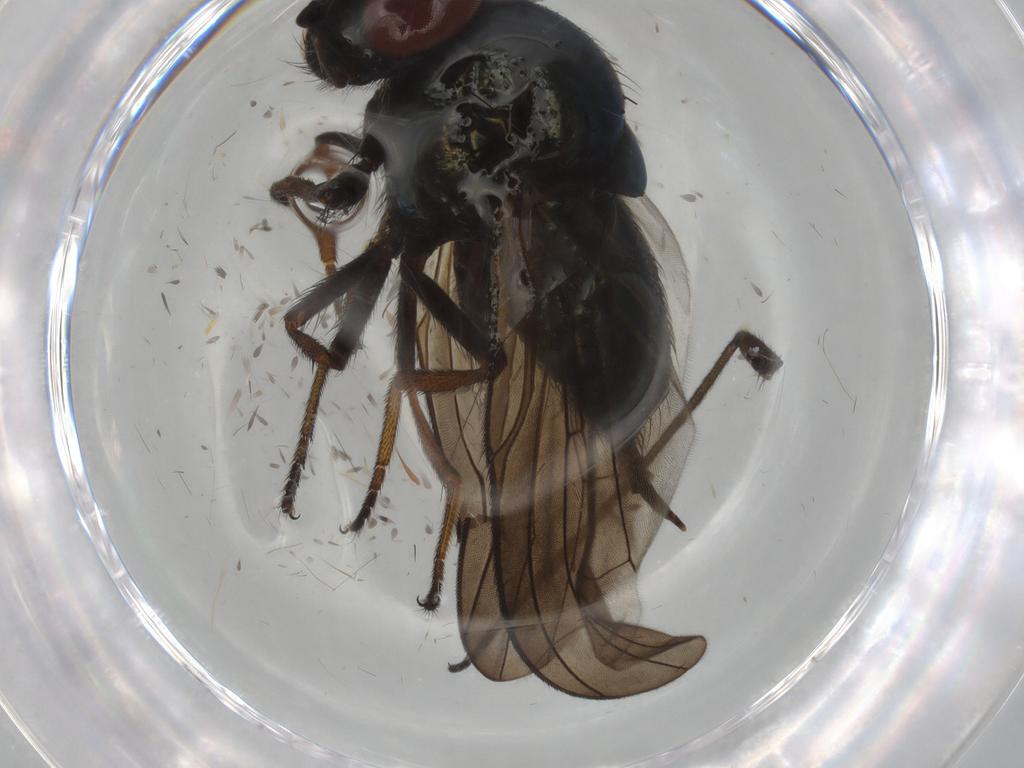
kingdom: Animalia
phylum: Arthropoda
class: Insecta
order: Diptera
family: Lonchaeidae
